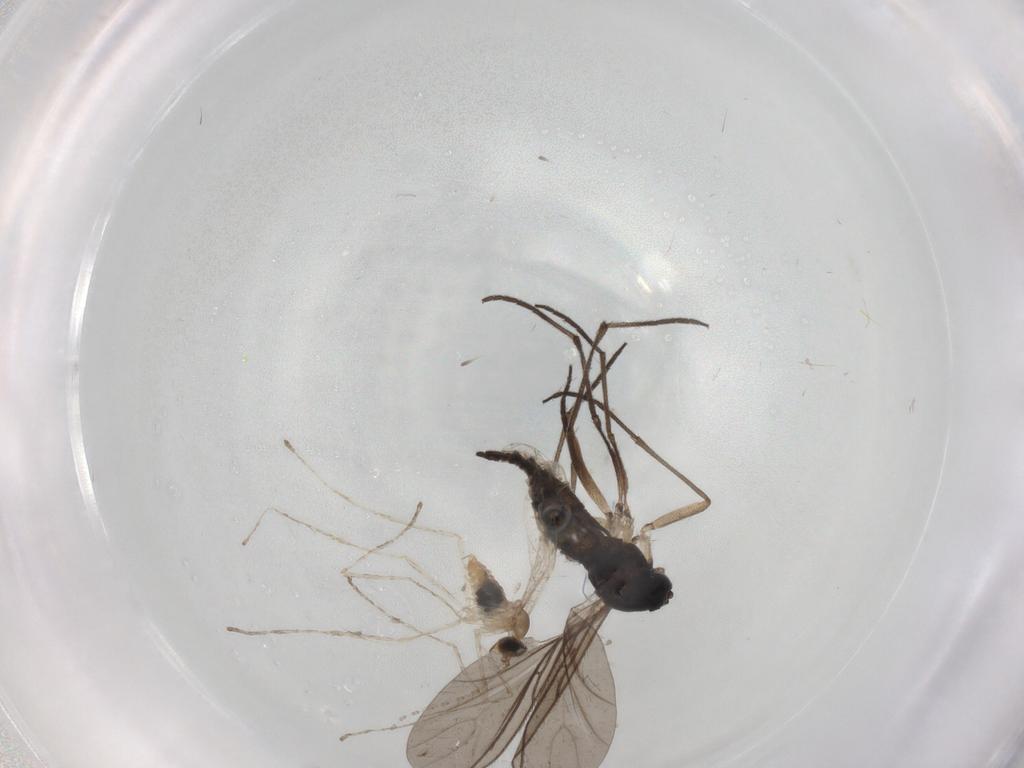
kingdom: Animalia
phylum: Arthropoda
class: Insecta
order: Diptera
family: Sciaridae
